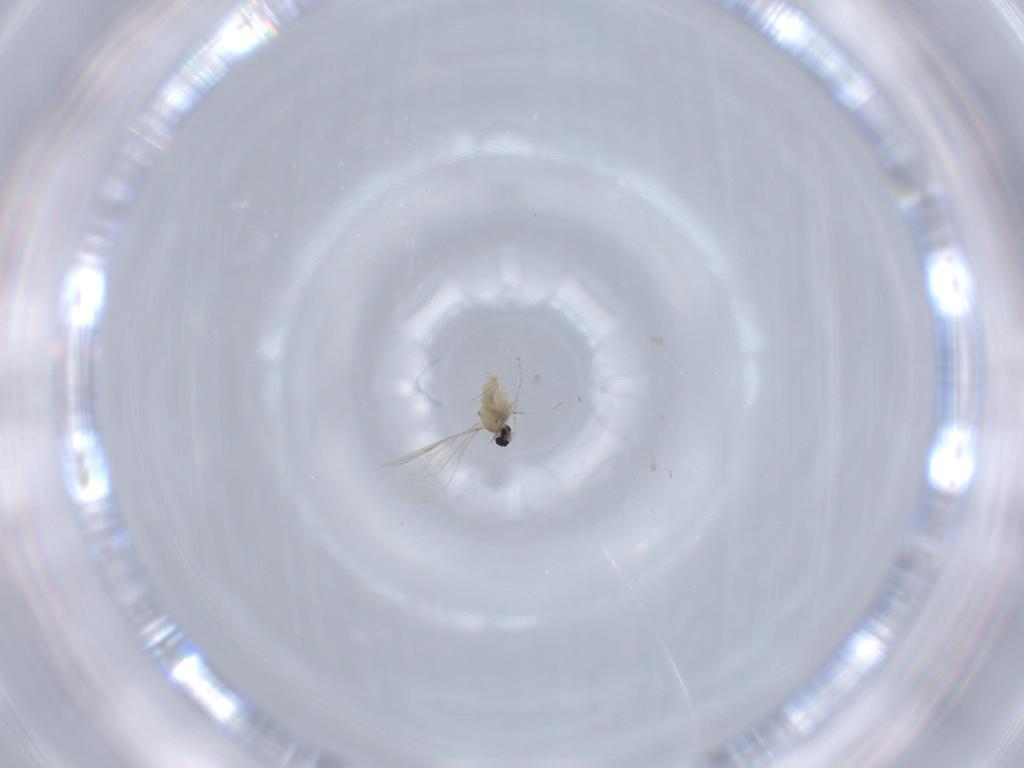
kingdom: Animalia
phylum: Arthropoda
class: Insecta
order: Diptera
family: Cecidomyiidae
